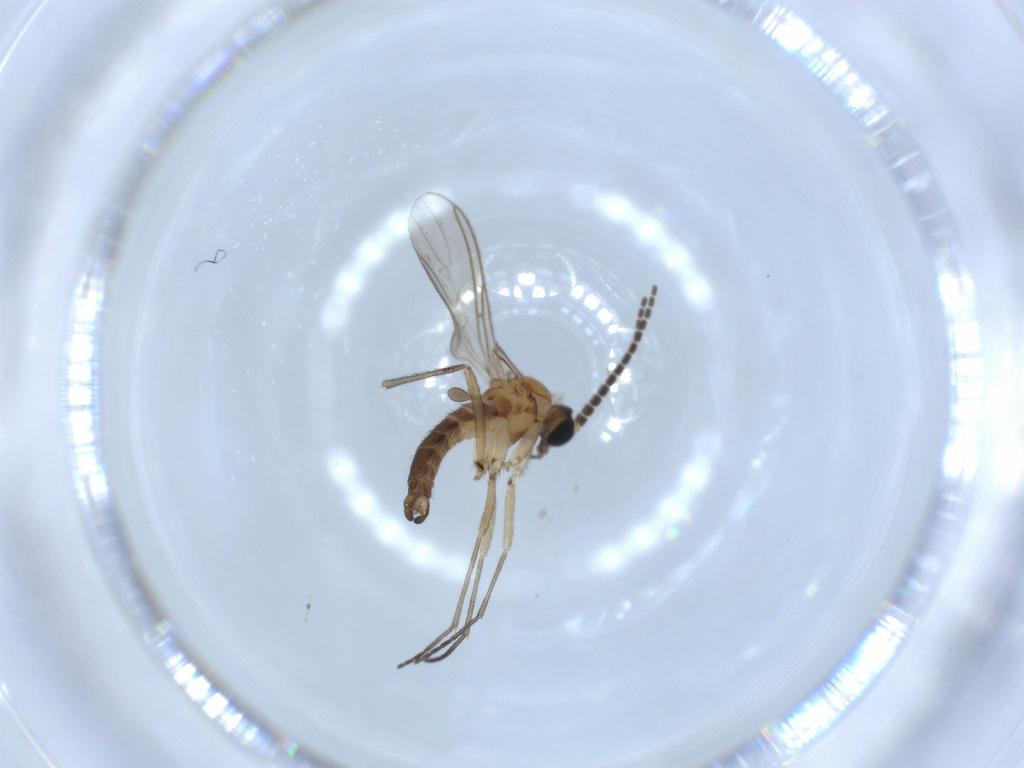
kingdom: Animalia
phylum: Arthropoda
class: Insecta
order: Diptera
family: Sciaridae
